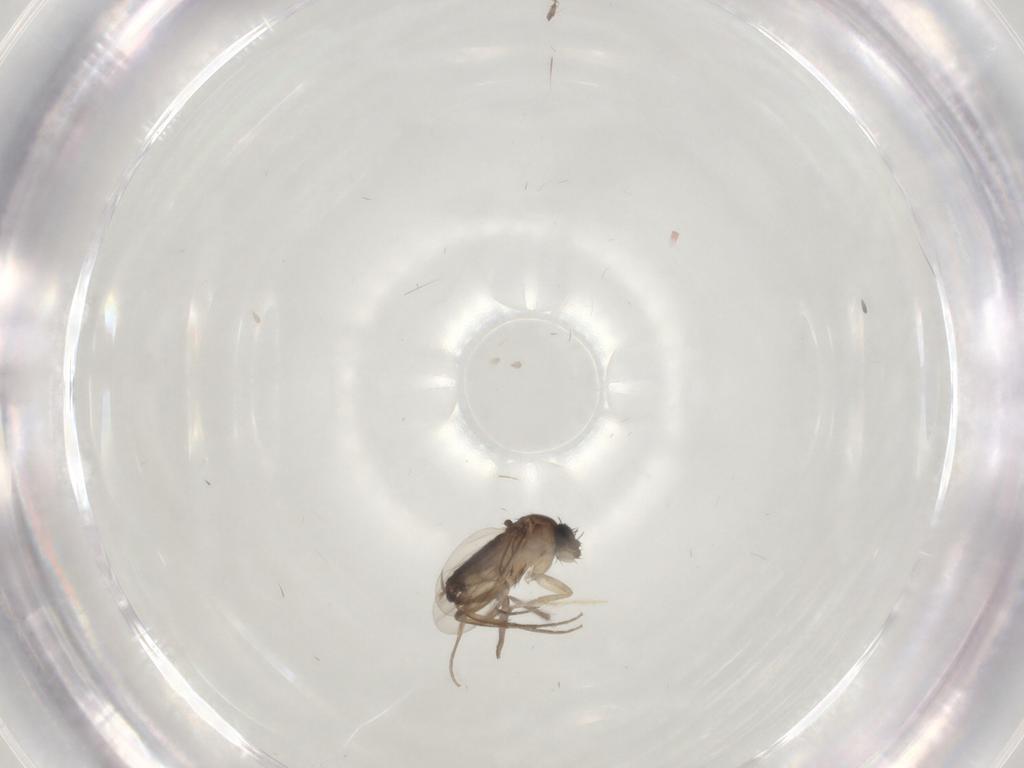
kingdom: Animalia
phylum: Arthropoda
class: Insecta
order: Diptera
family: Phoridae
